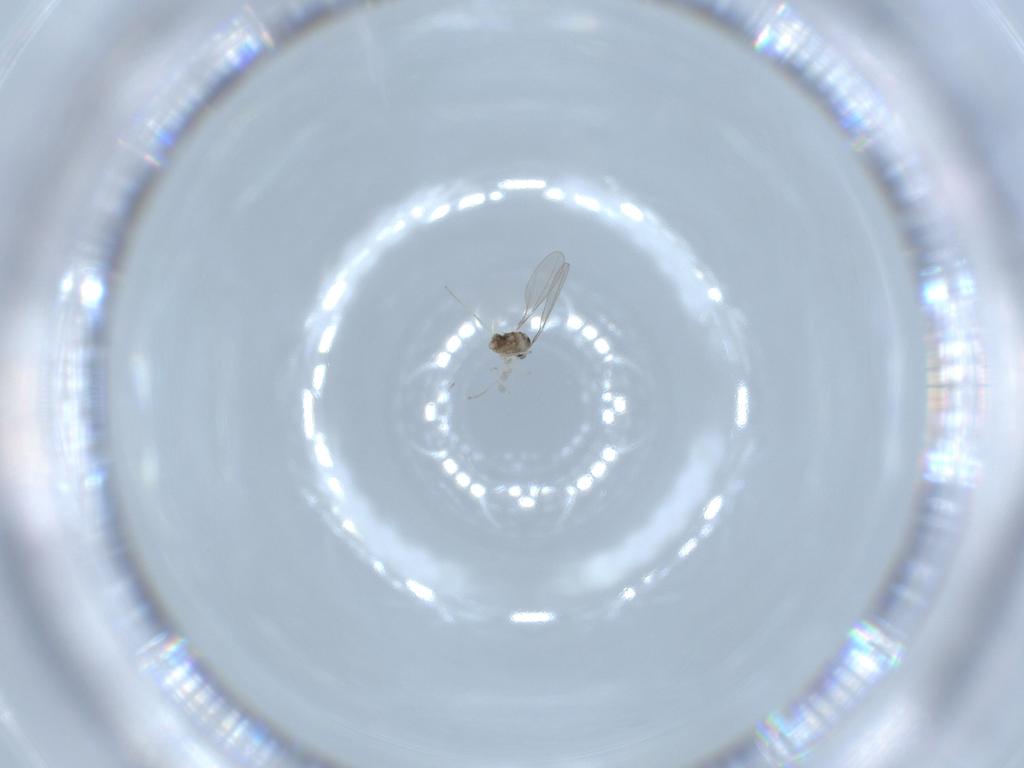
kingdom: Animalia
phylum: Arthropoda
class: Insecta
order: Diptera
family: Cecidomyiidae
